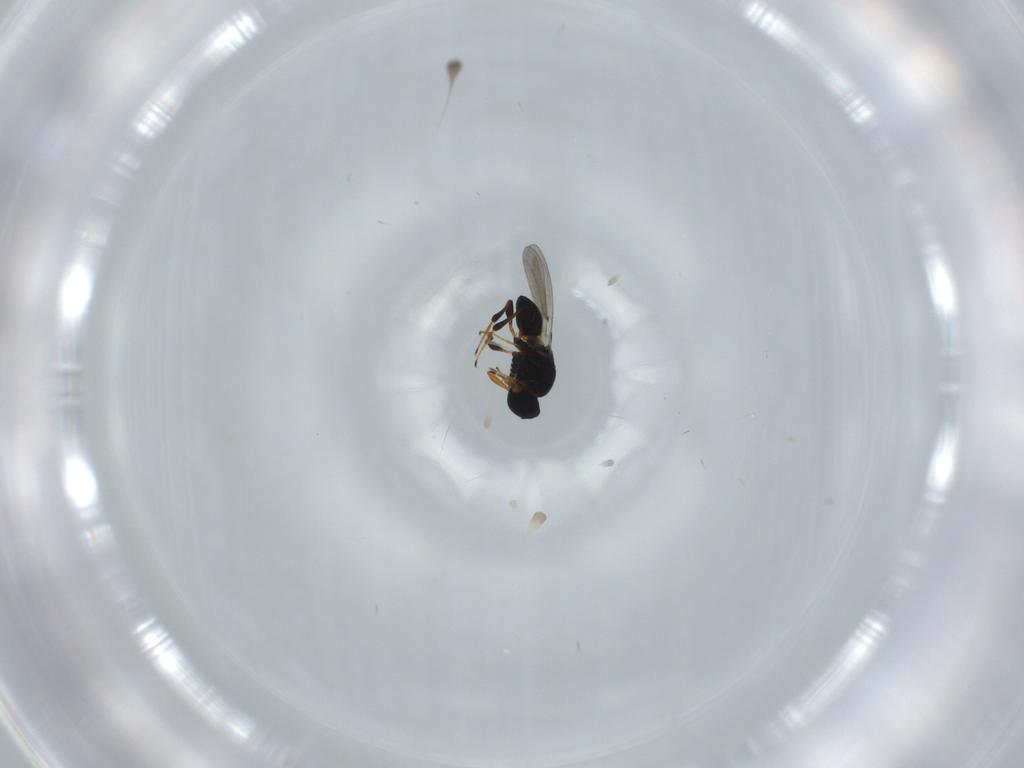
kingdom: Animalia
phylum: Arthropoda
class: Insecta
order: Hymenoptera
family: Platygastridae
